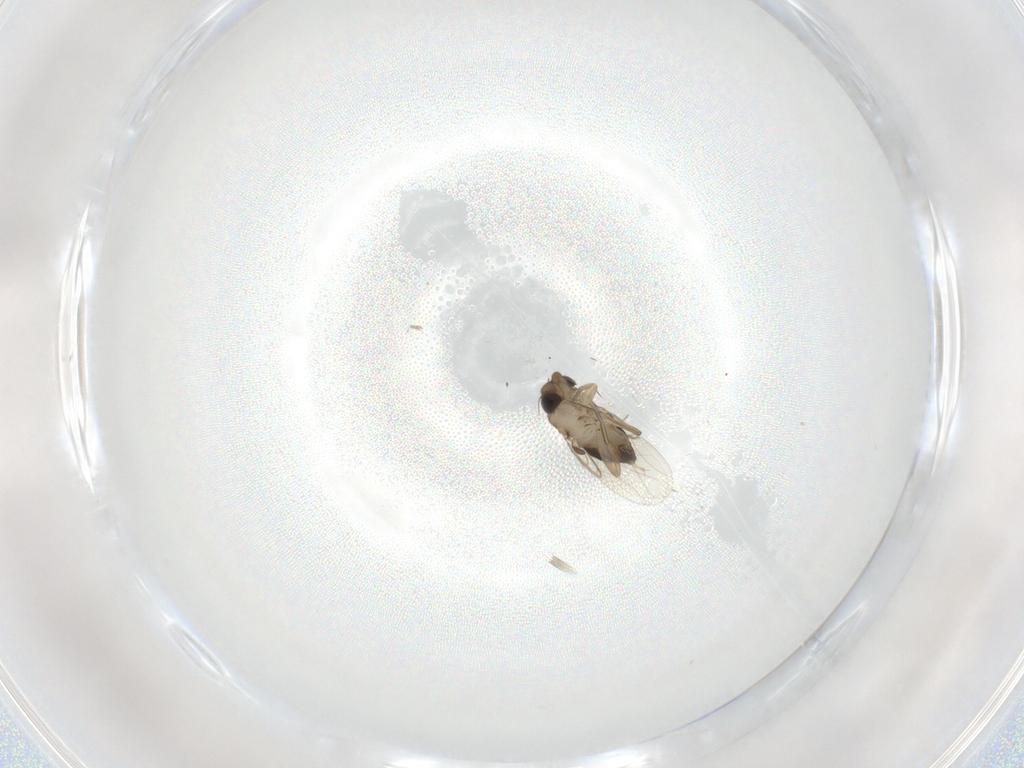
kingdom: Animalia
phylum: Arthropoda
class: Insecta
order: Diptera
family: Phoridae
